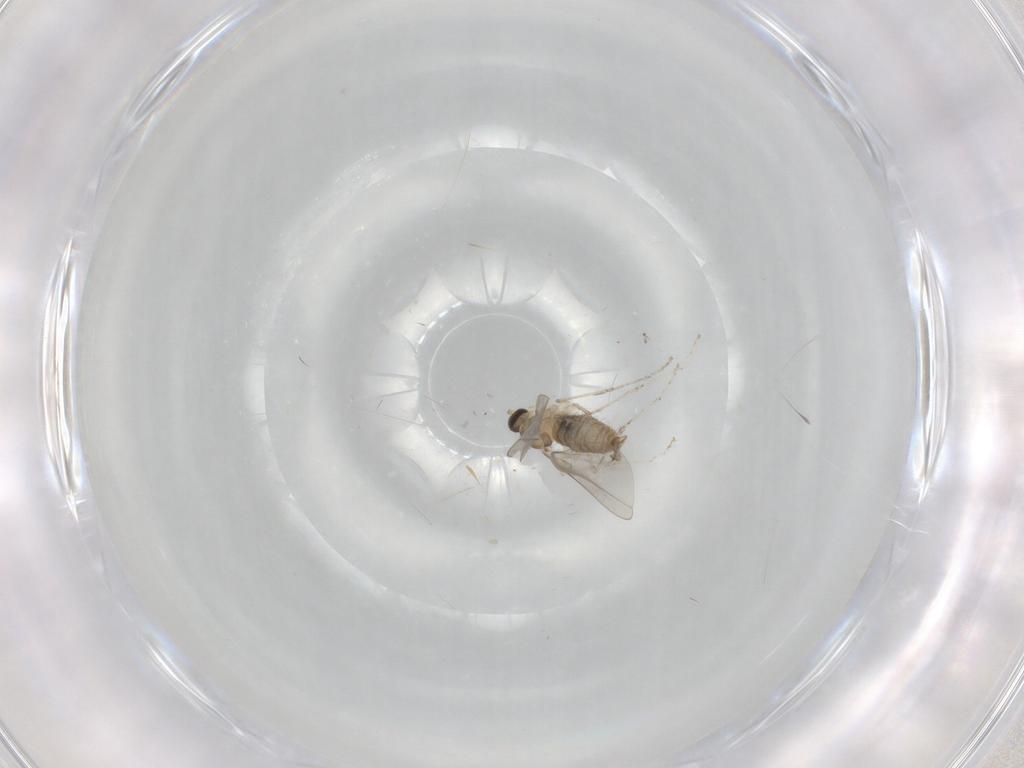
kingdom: Animalia
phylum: Arthropoda
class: Insecta
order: Diptera
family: Cecidomyiidae
